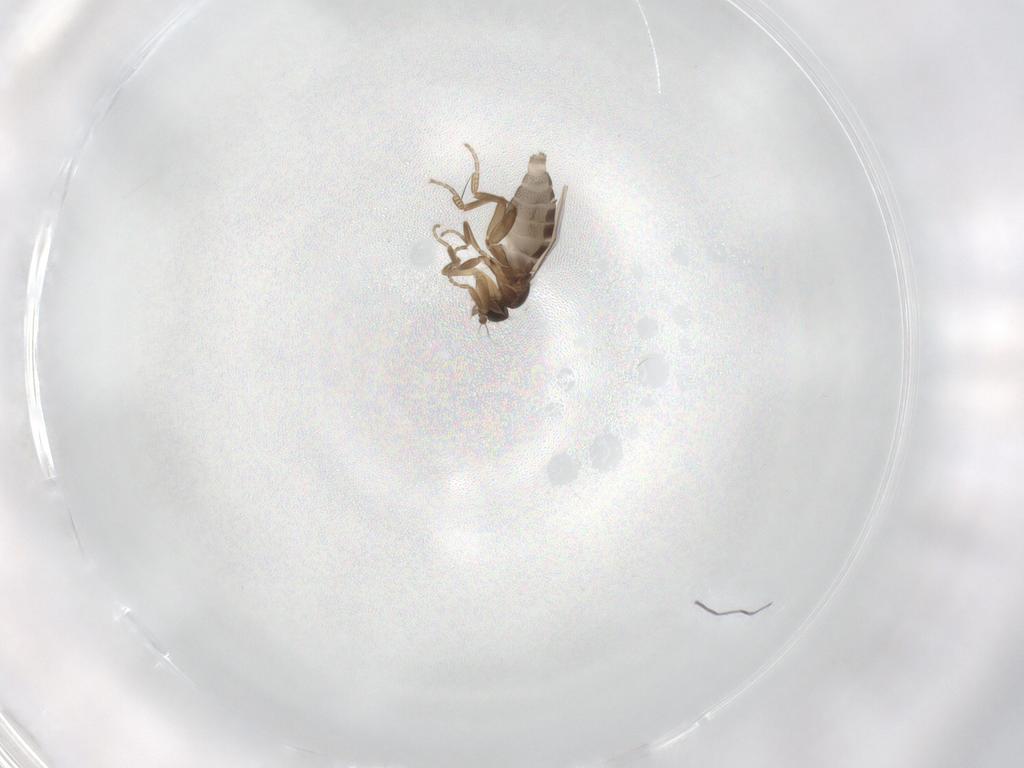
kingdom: Animalia
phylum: Arthropoda
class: Insecta
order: Diptera
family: Phoridae
